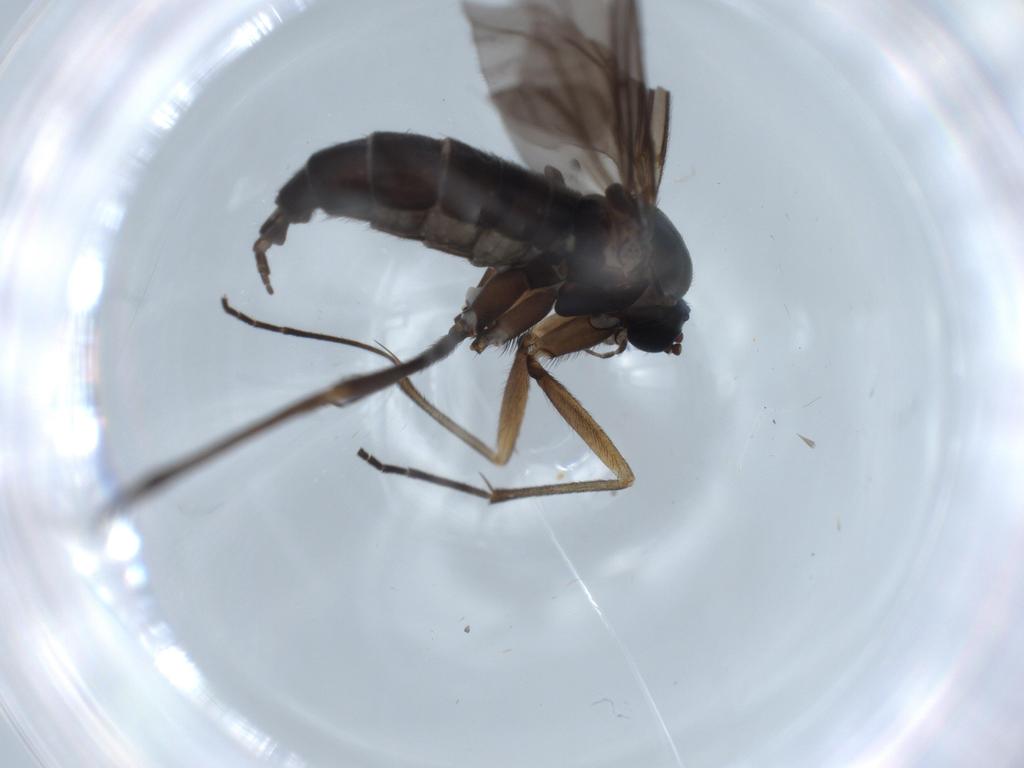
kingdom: Animalia
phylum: Arthropoda
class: Insecta
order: Diptera
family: Sciaridae
